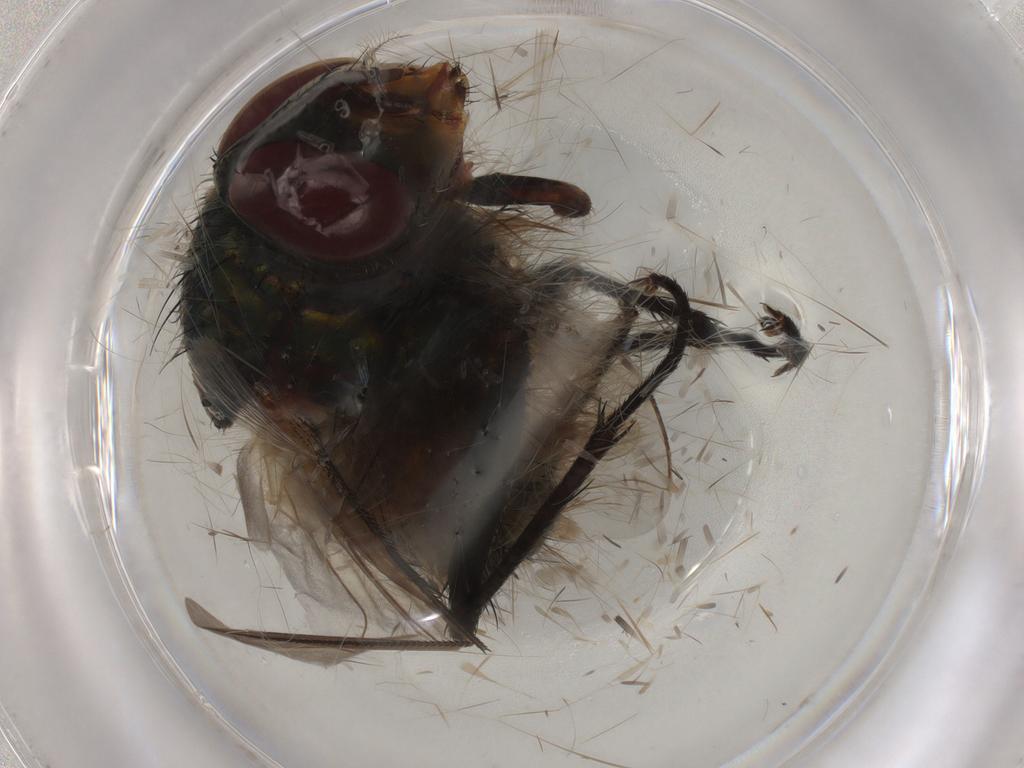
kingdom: Animalia
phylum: Arthropoda
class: Insecta
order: Diptera
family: Calliphoridae
